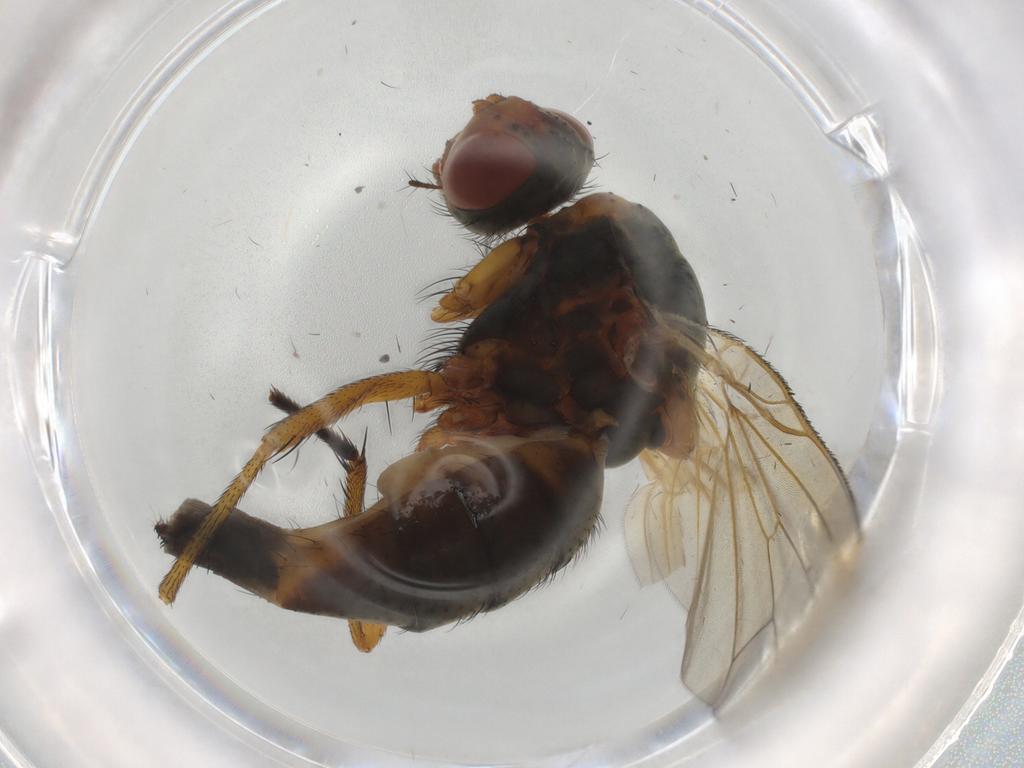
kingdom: Animalia
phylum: Arthropoda
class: Insecta
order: Diptera
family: Anthomyiidae
